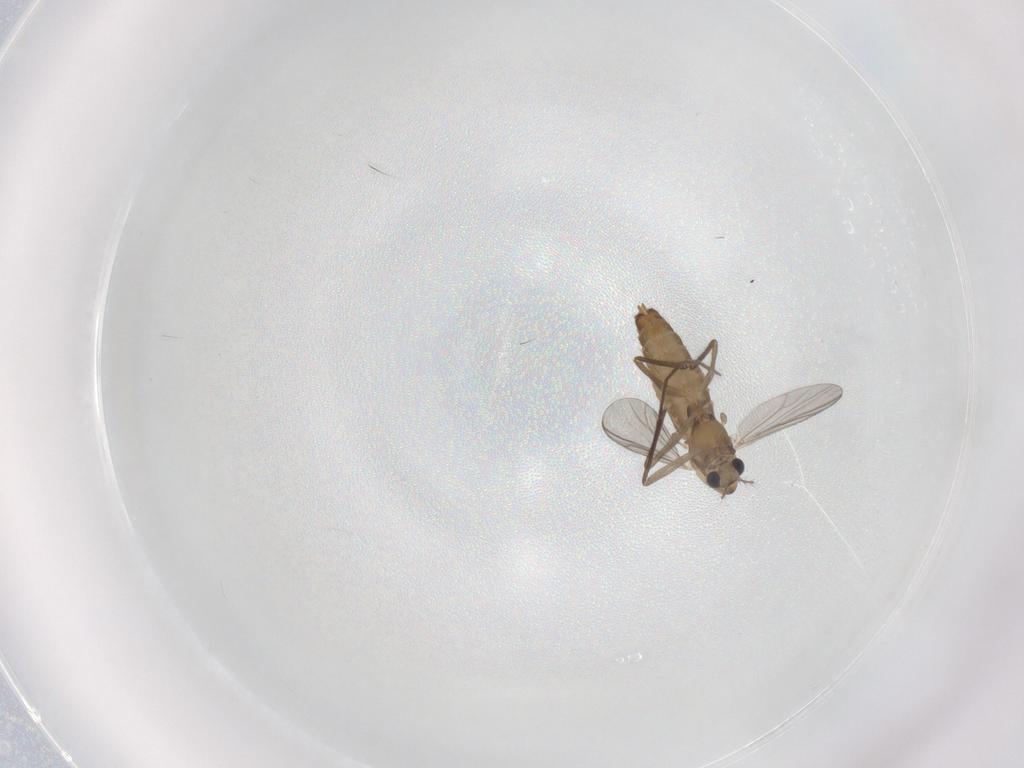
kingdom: Animalia
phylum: Arthropoda
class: Insecta
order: Diptera
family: Chironomidae
